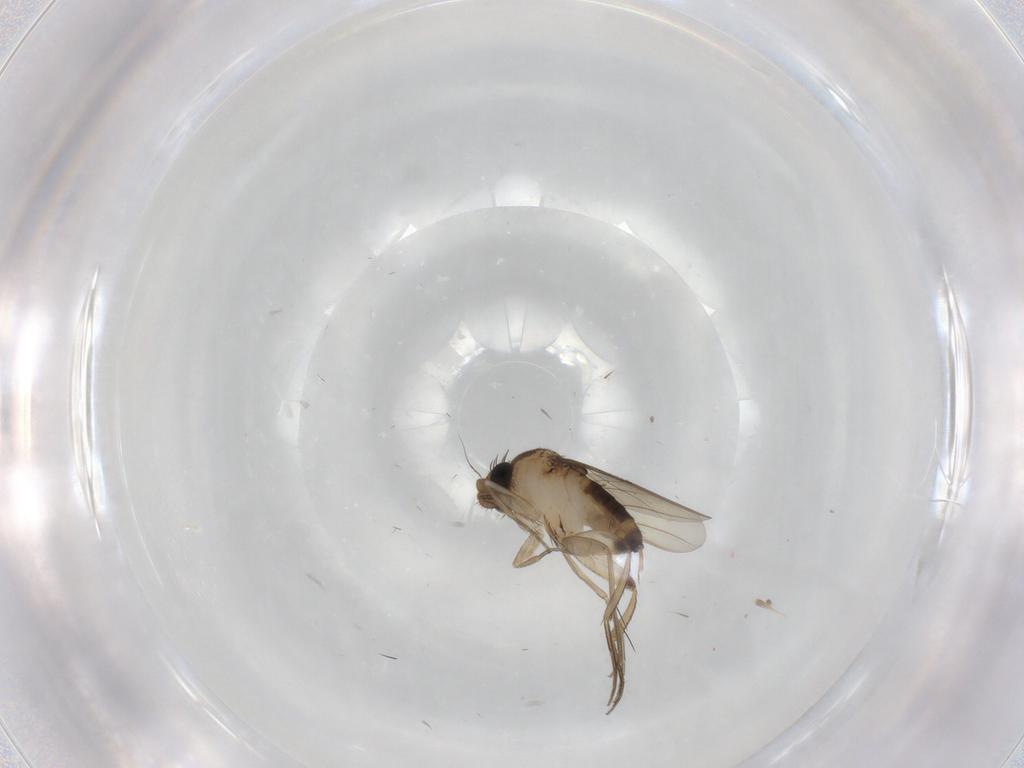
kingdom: Animalia
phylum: Arthropoda
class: Insecta
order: Diptera
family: Phoridae
